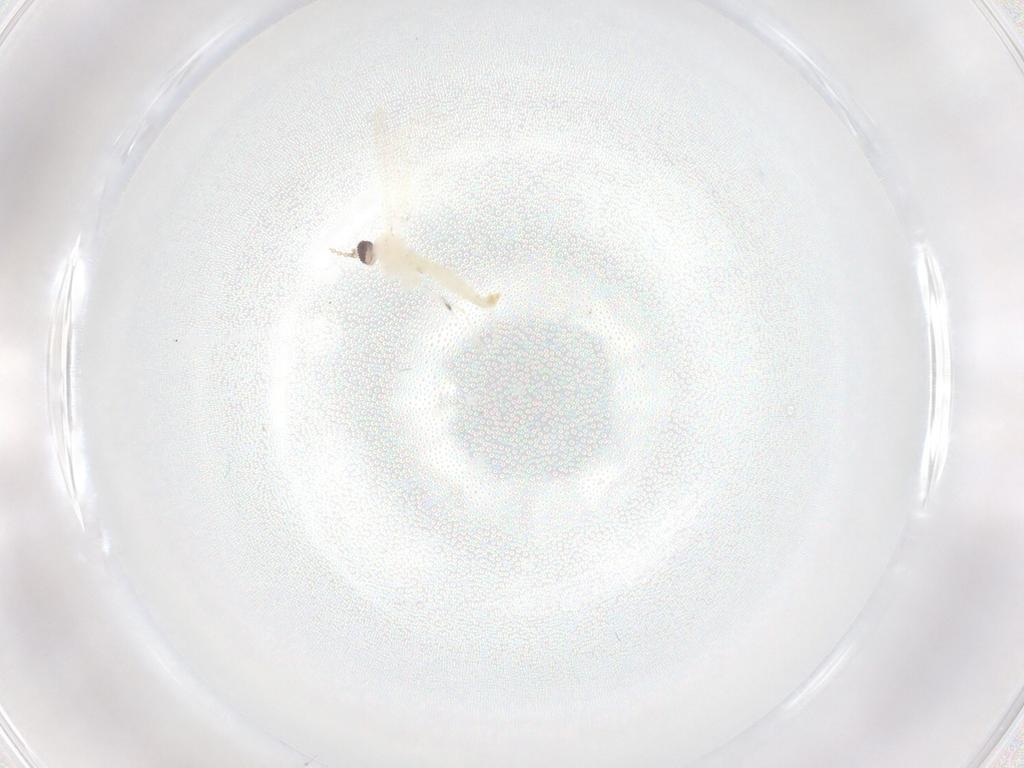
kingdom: Animalia
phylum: Arthropoda
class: Insecta
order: Diptera
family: Cecidomyiidae
